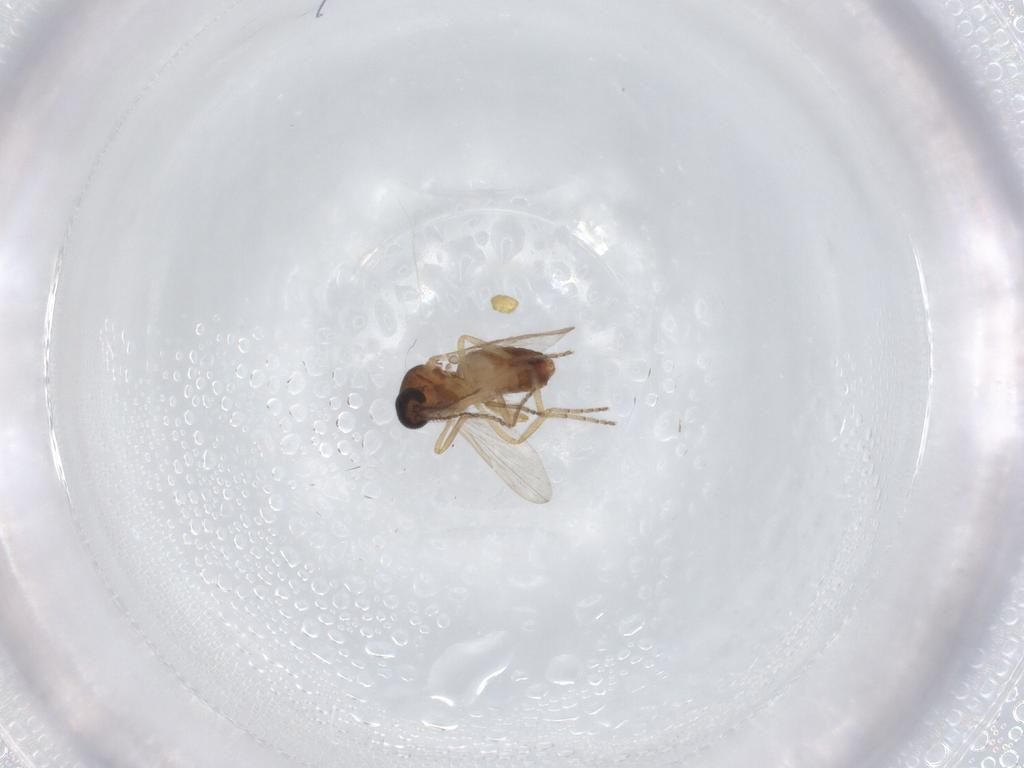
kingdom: Animalia
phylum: Arthropoda
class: Insecta
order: Diptera
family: Ceratopogonidae
